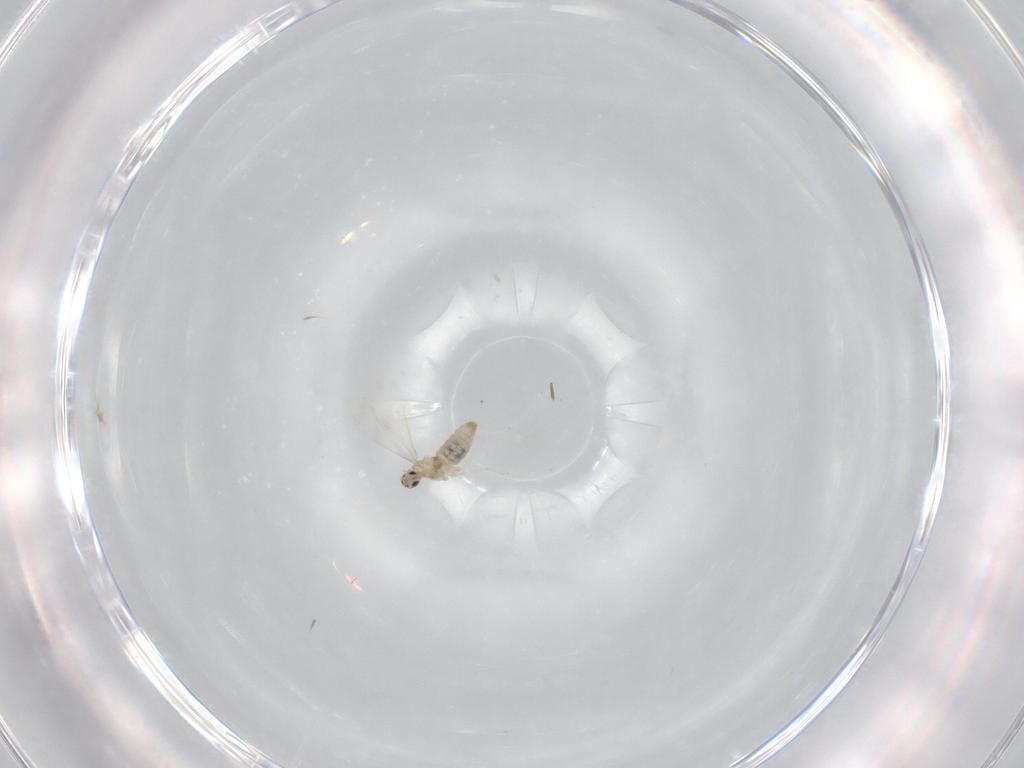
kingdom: Animalia
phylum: Arthropoda
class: Insecta
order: Diptera
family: Cecidomyiidae
